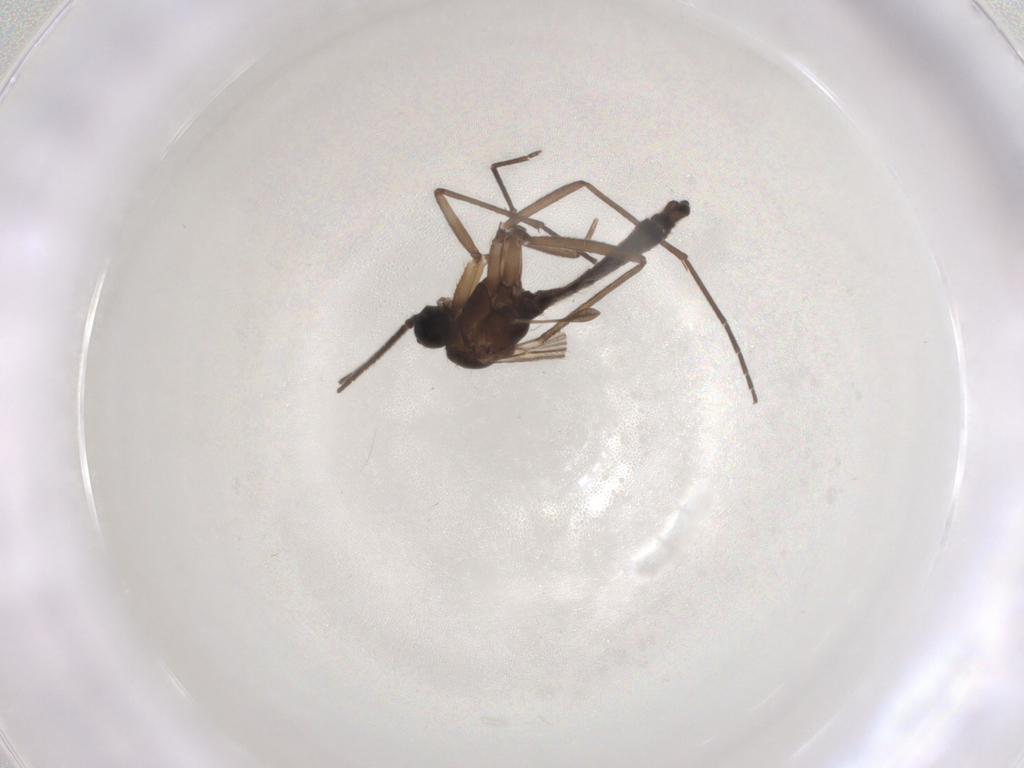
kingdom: Animalia
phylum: Arthropoda
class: Insecta
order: Diptera
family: Sciaridae
